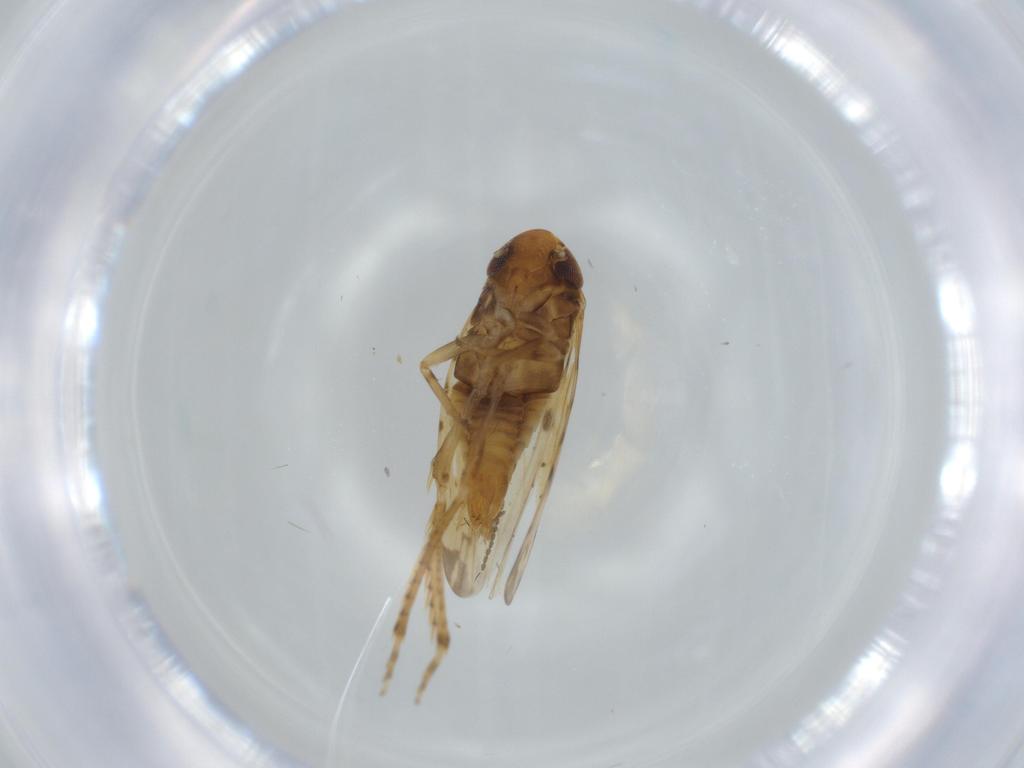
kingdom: Animalia
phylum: Arthropoda
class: Insecta
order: Hemiptera
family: Cicadellidae
